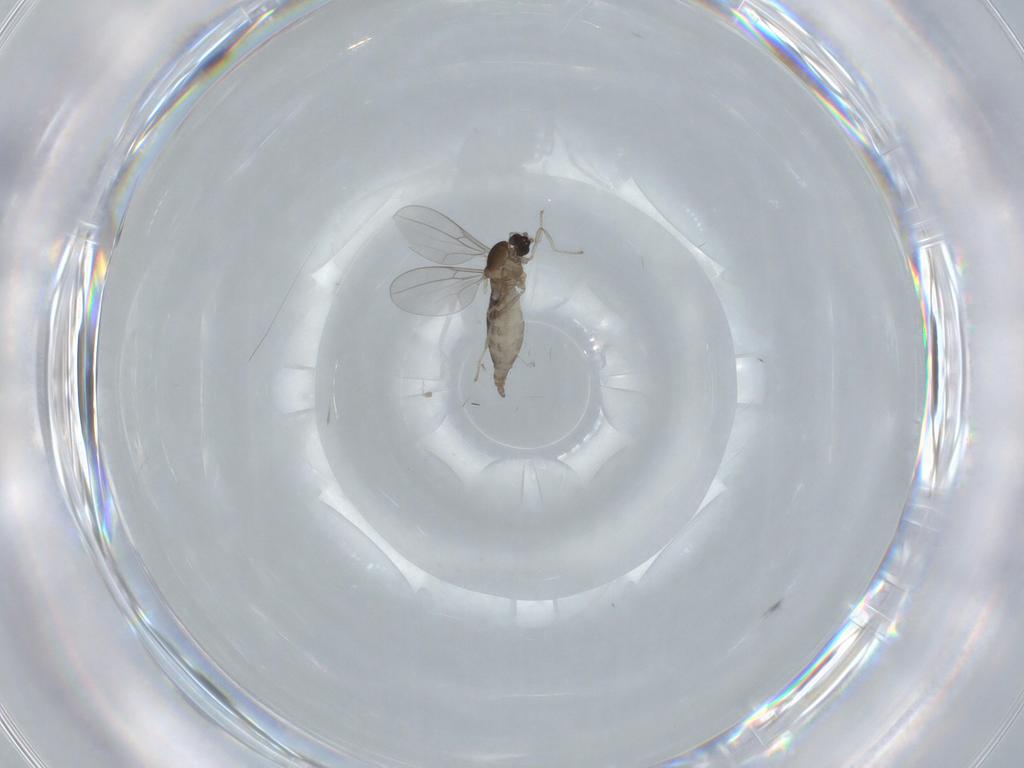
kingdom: Animalia
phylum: Arthropoda
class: Insecta
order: Diptera
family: Cecidomyiidae
